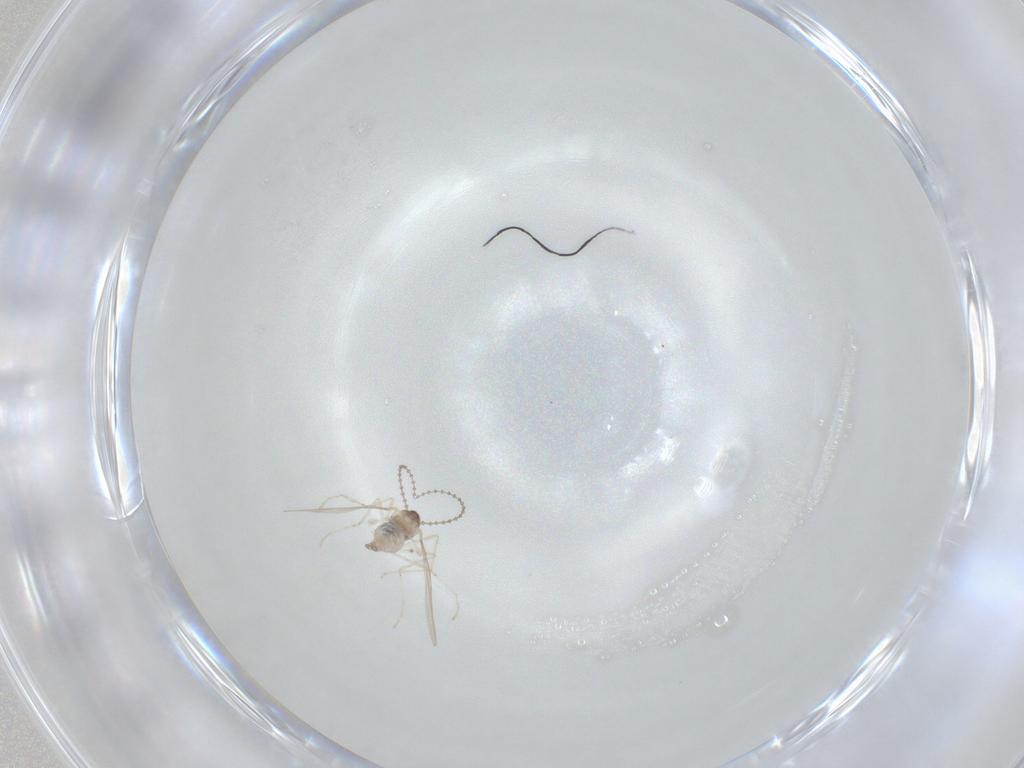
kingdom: Animalia
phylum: Arthropoda
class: Insecta
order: Diptera
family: Cecidomyiidae
